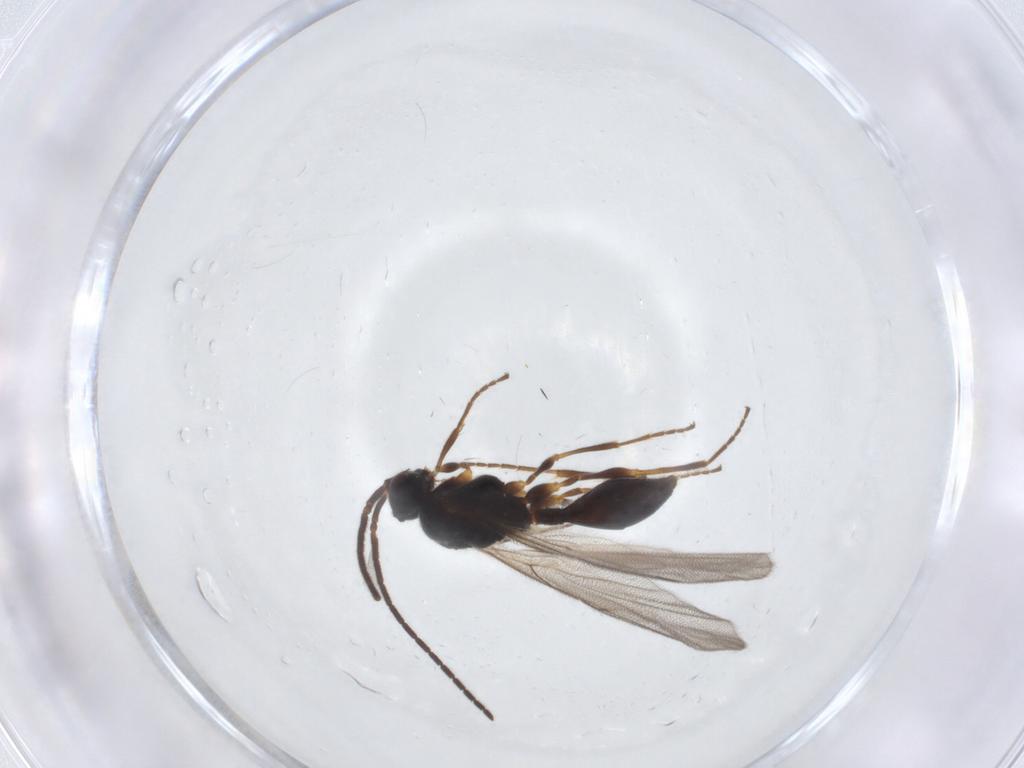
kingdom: Animalia
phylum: Arthropoda
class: Insecta
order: Hymenoptera
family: Diapriidae
